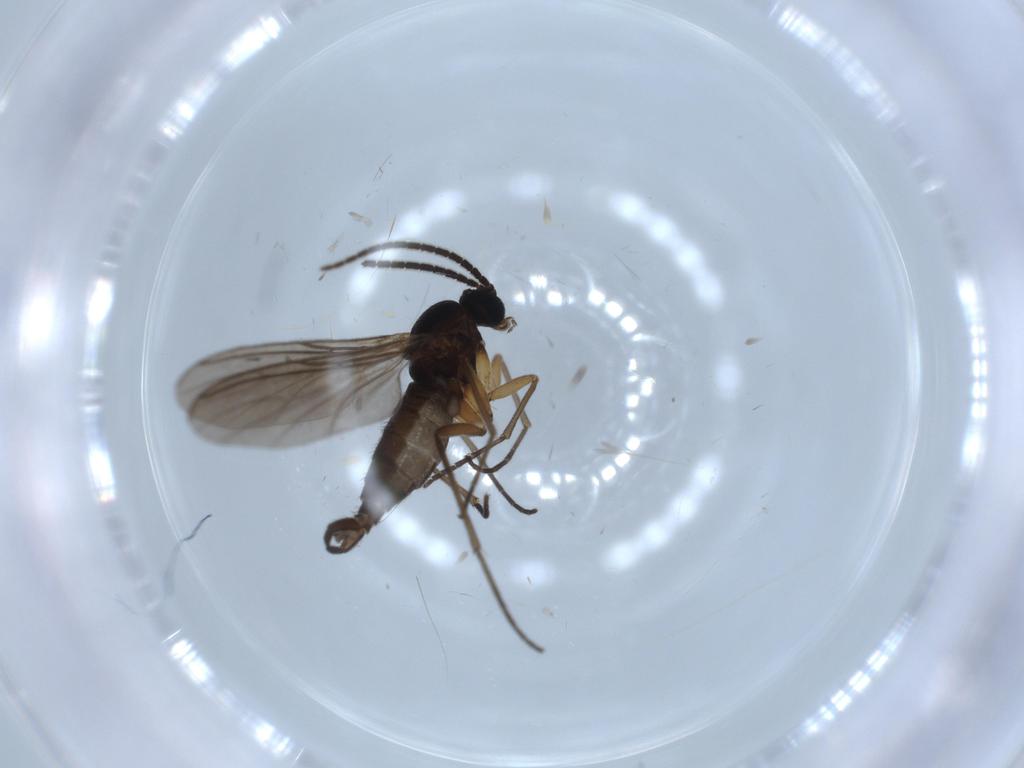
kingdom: Animalia
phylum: Arthropoda
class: Insecta
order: Diptera
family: Sciaridae
